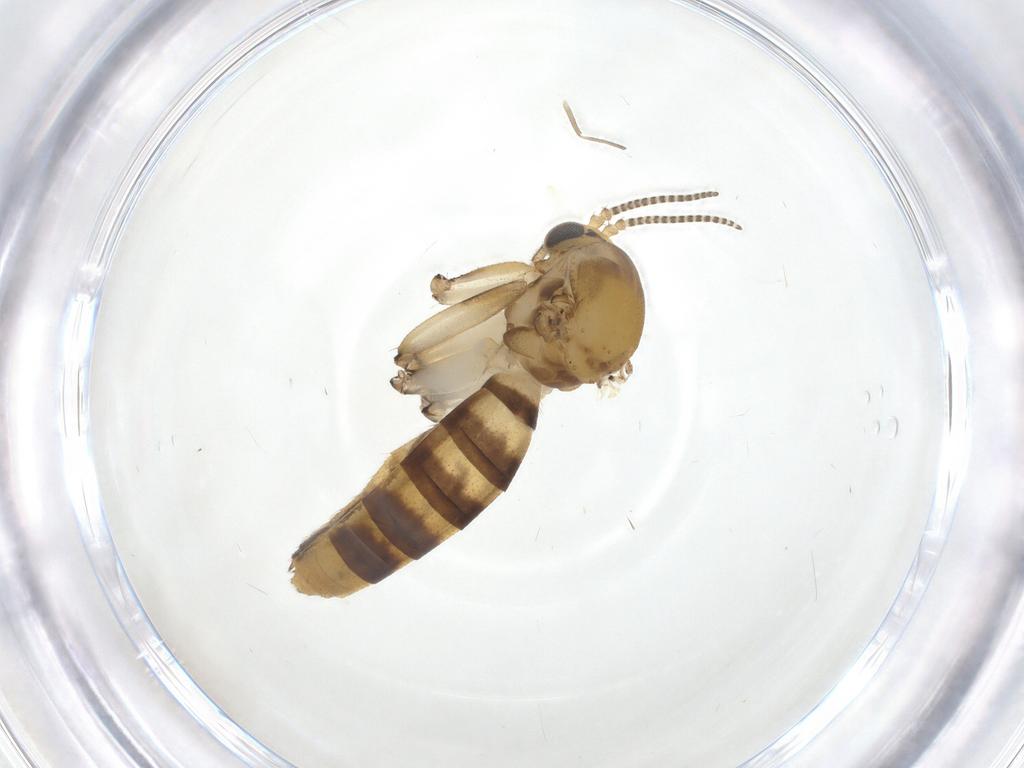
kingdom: Animalia
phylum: Arthropoda
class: Insecta
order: Diptera
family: Mycetophilidae
